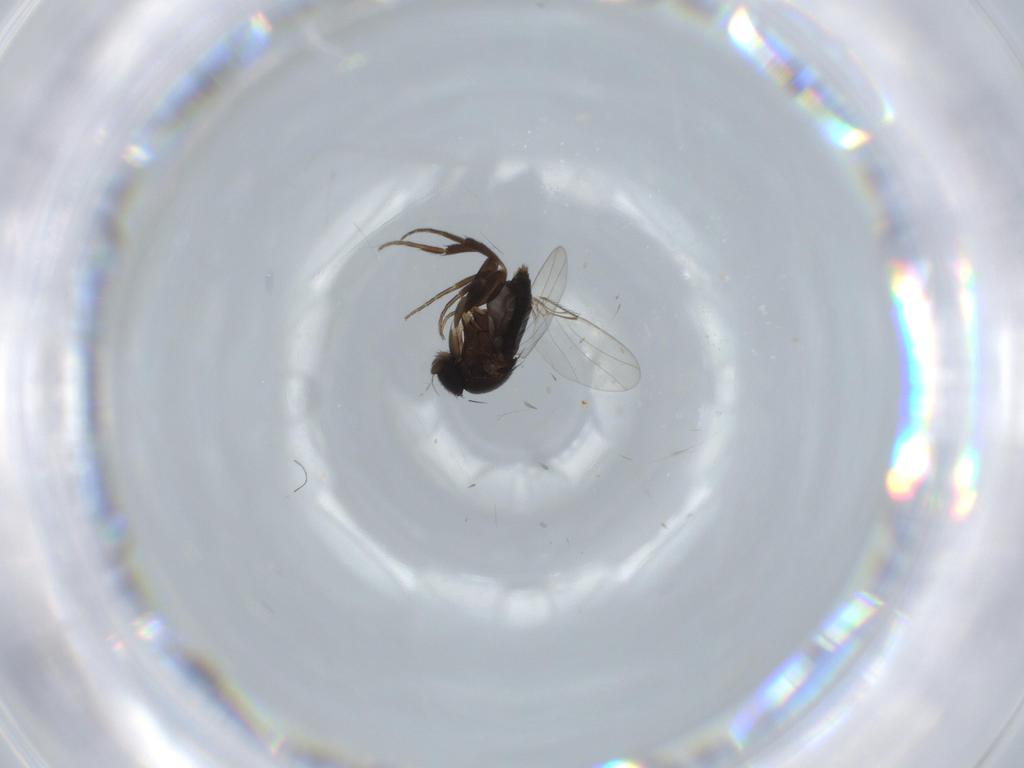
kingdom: Animalia
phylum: Arthropoda
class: Insecta
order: Diptera
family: Phoridae
